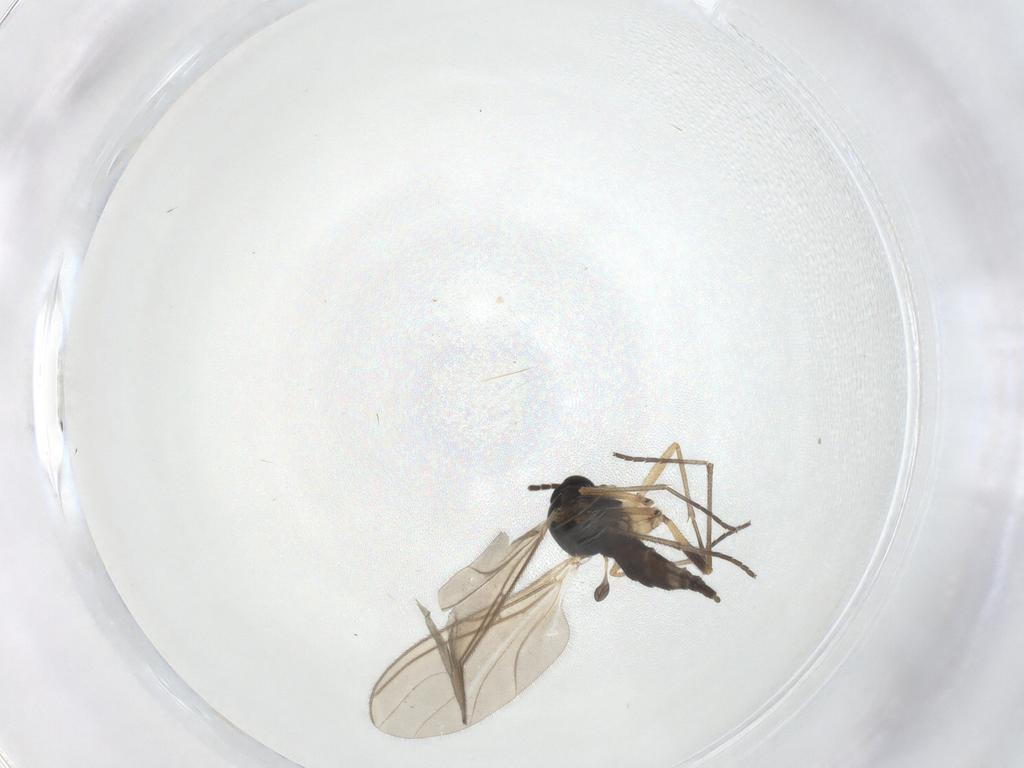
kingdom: Animalia
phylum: Arthropoda
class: Insecta
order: Diptera
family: Sciaridae
